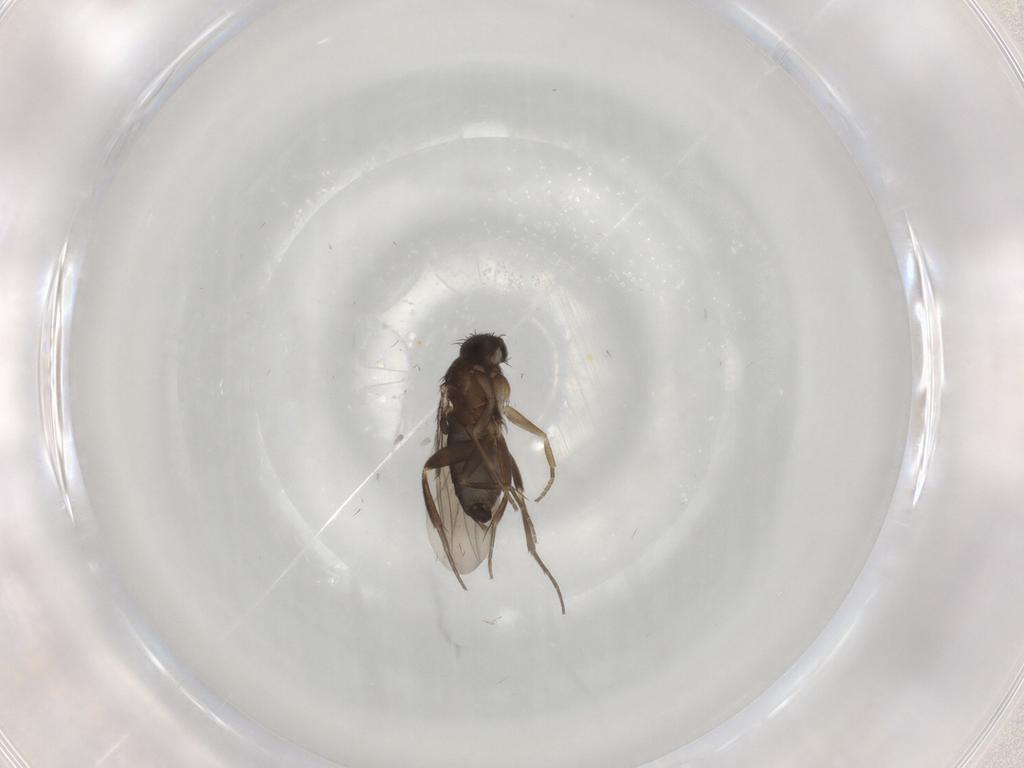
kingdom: Animalia
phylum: Arthropoda
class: Insecta
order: Diptera
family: Phoridae
